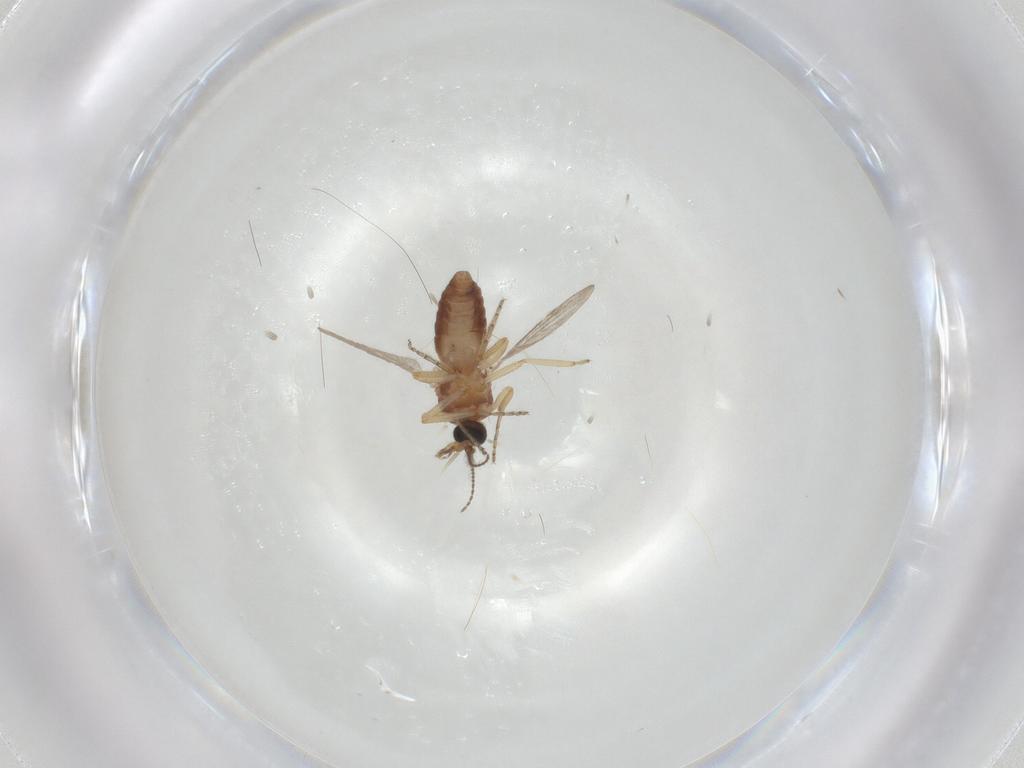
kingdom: Animalia
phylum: Arthropoda
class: Insecta
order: Diptera
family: Ceratopogonidae
